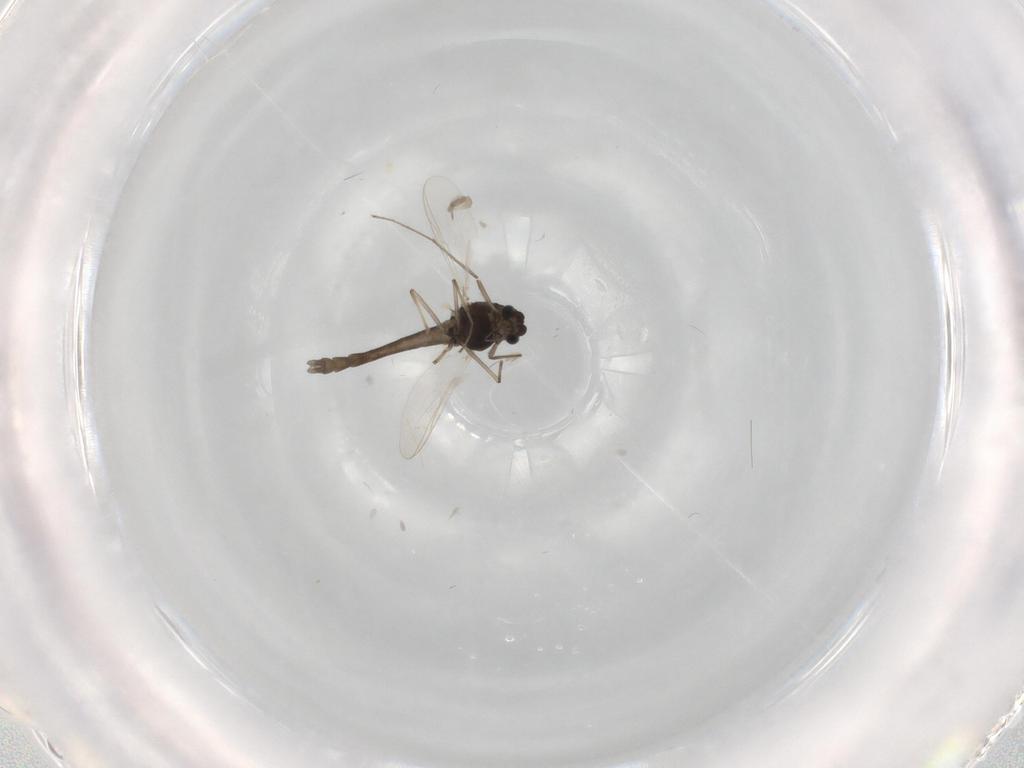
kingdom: Animalia
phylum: Arthropoda
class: Insecta
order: Diptera
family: Chironomidae
